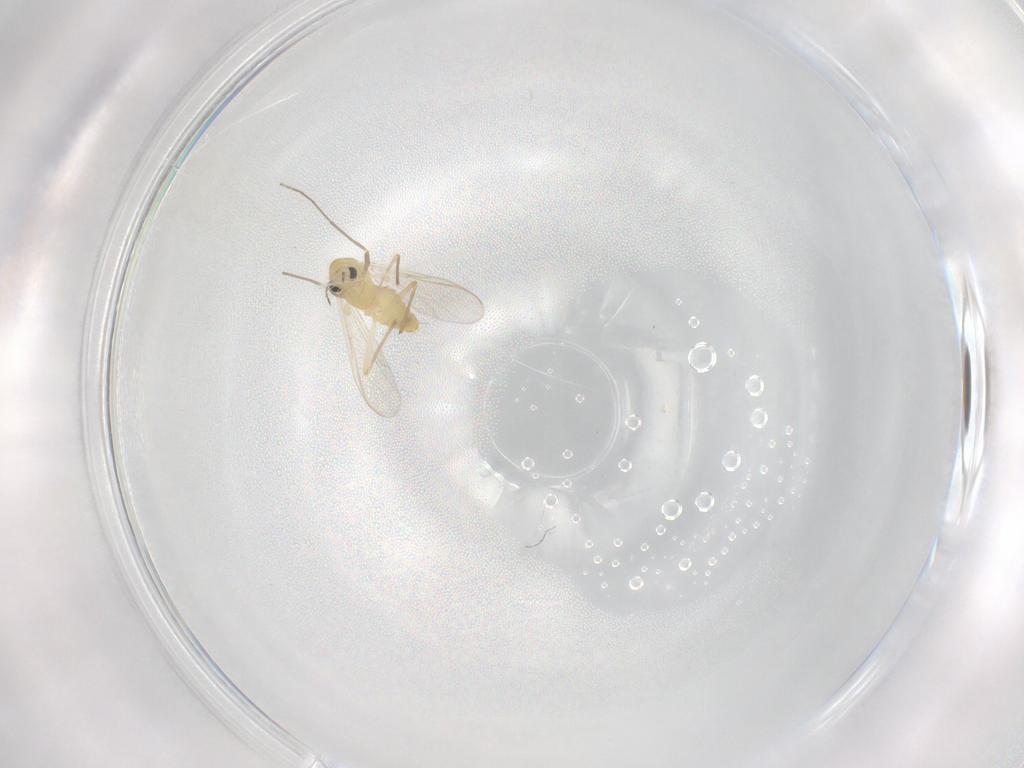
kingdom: Animalia
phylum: Arthropoda
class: Insecta
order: Diptera
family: Chironomidae
